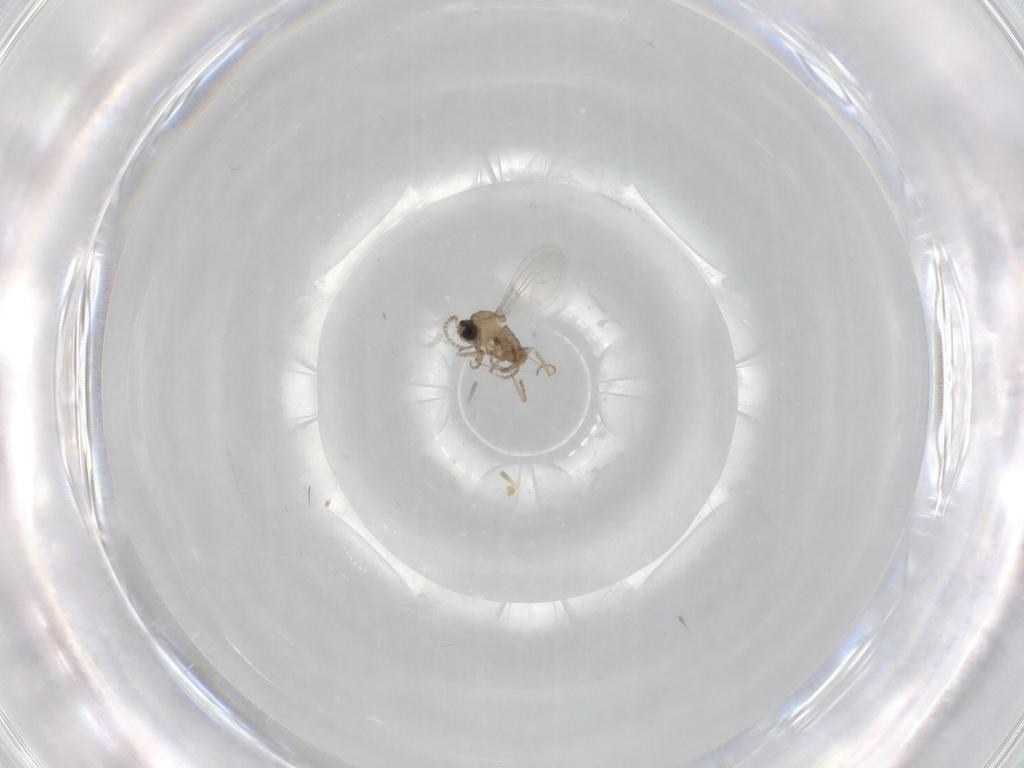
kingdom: Animalia
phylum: Arthropoda
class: Insecta
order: Diptera
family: Cecidomyiidae
